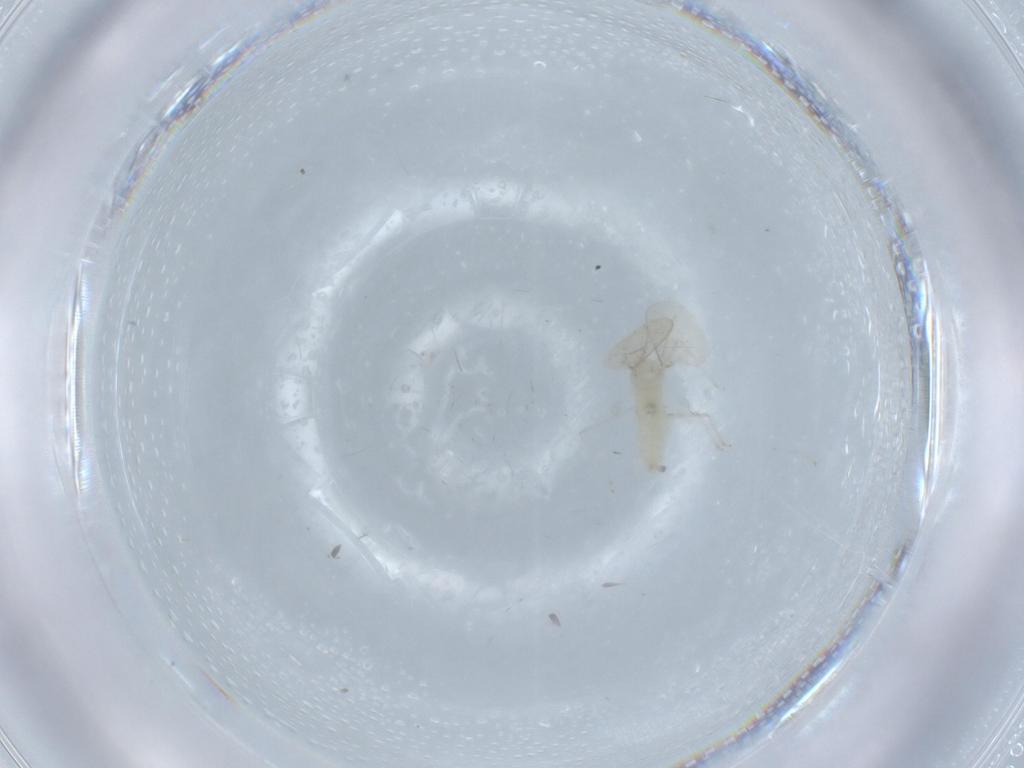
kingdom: Animalia
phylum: Arthropoda
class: Insecta
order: Diptera
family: Cecidomyiidae
